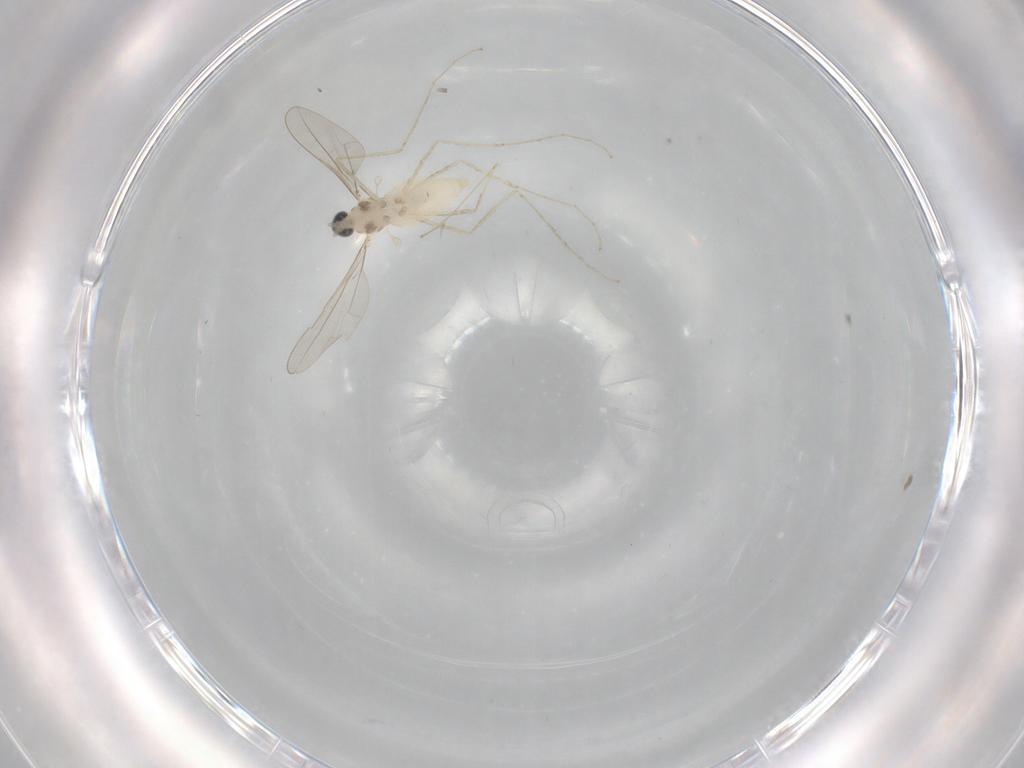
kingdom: Animalia
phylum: Arthropoda
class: Insecta
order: Diptera
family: Cecidomyiidae
